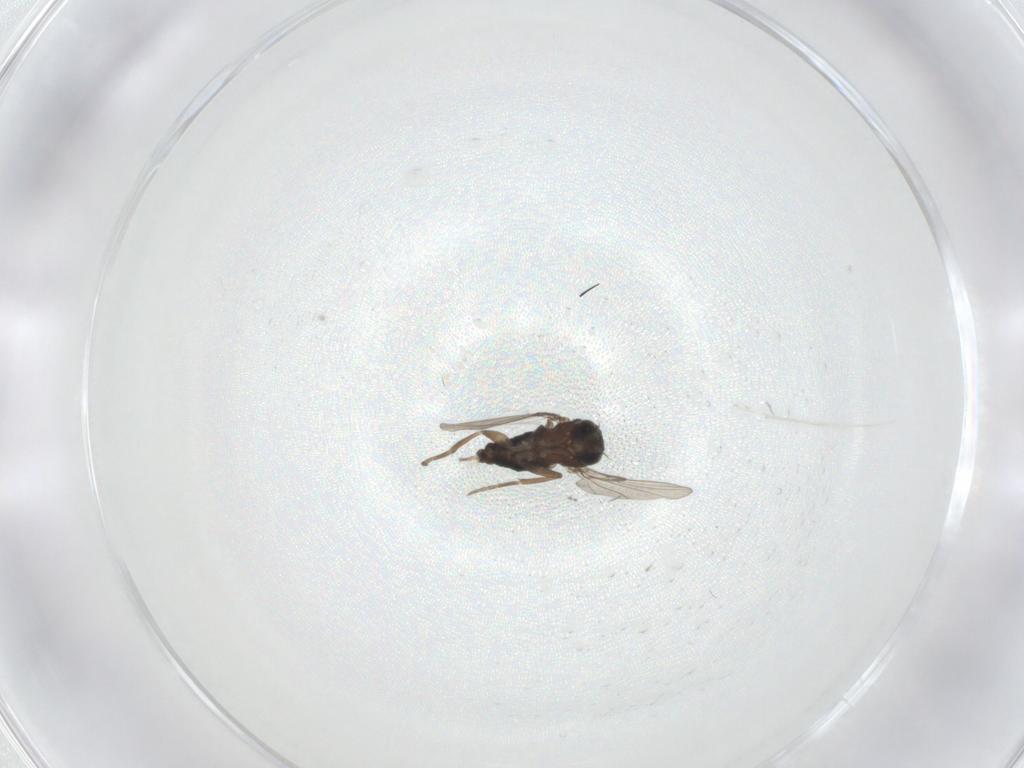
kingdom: Animalia
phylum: Arthropoda
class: Insecta
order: Diptera
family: Phoridae
